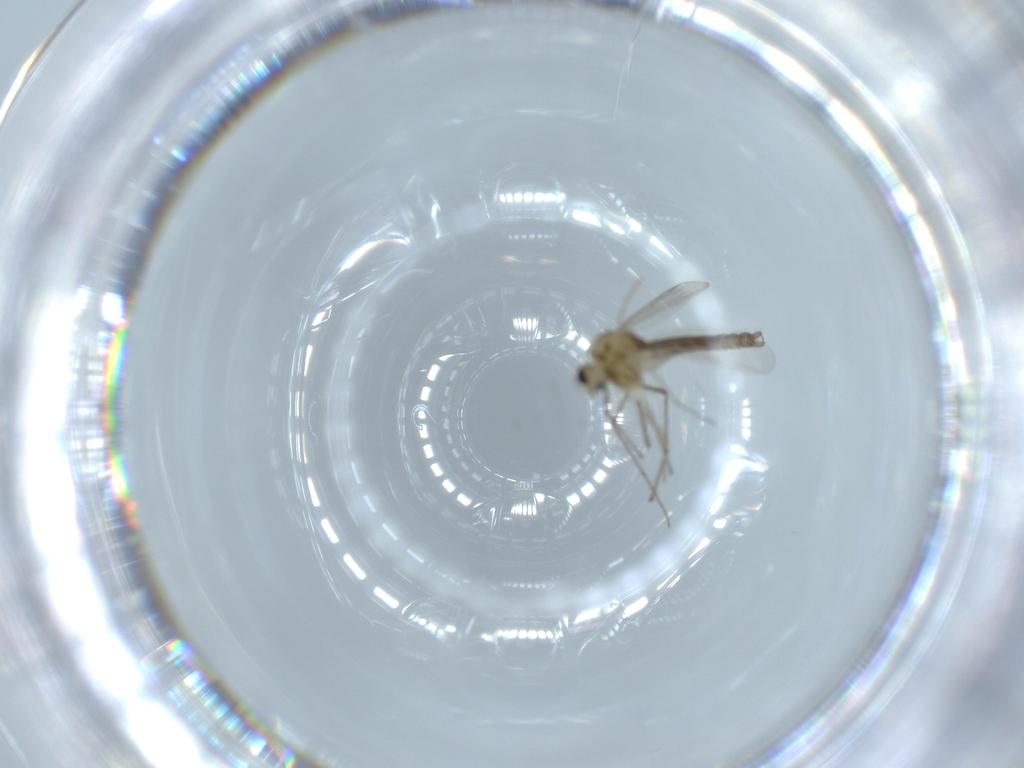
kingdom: Animalia
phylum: Arthropoda
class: Insecta
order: Diptera
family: Chironomidae
